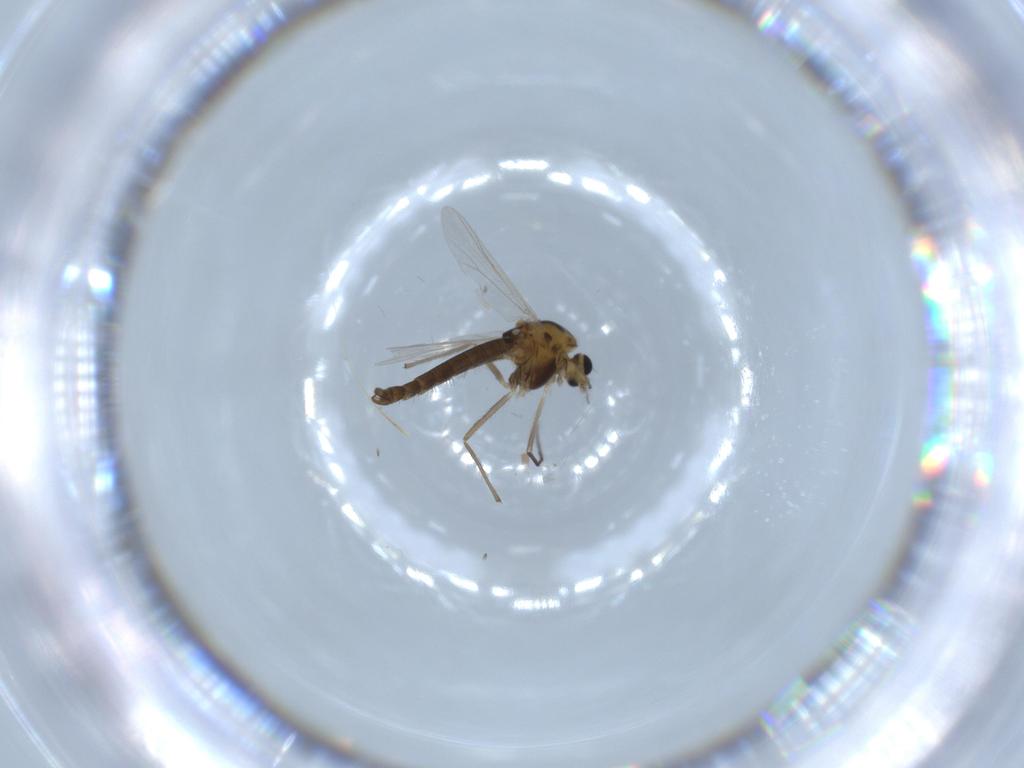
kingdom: Animalia
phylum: Arthropoda
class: Insecta
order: Diptera
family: Chironomidae
